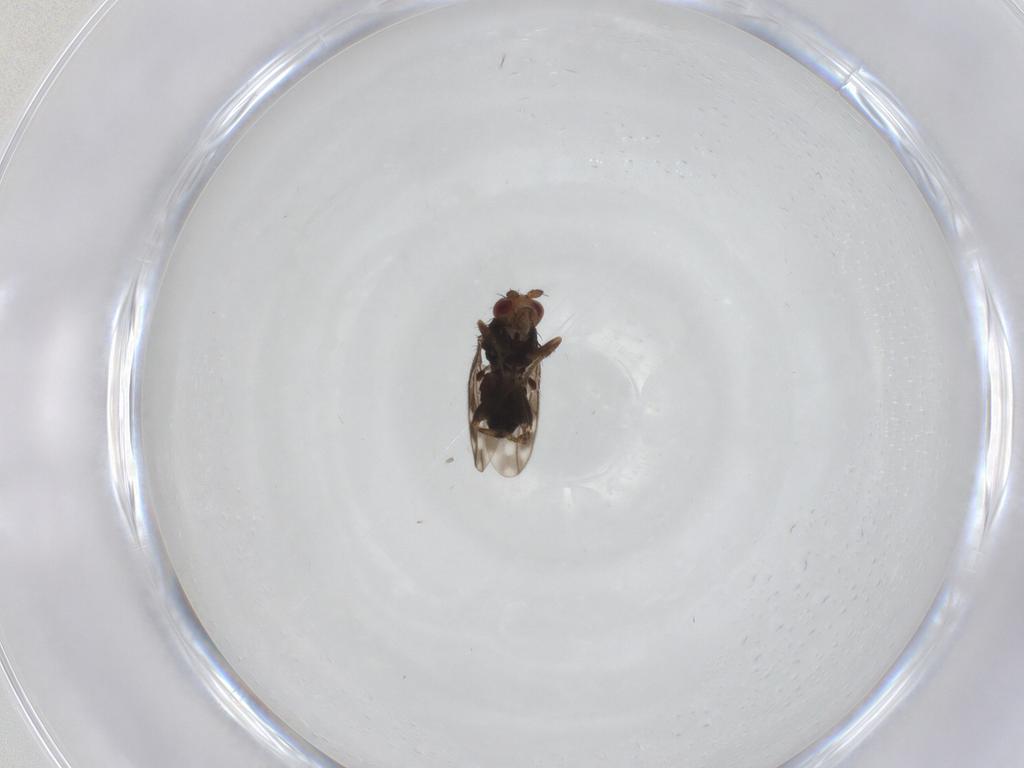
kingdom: Animalia
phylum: Arthropoda
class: Insecta
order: Diptera
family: Sphaeroceridae
